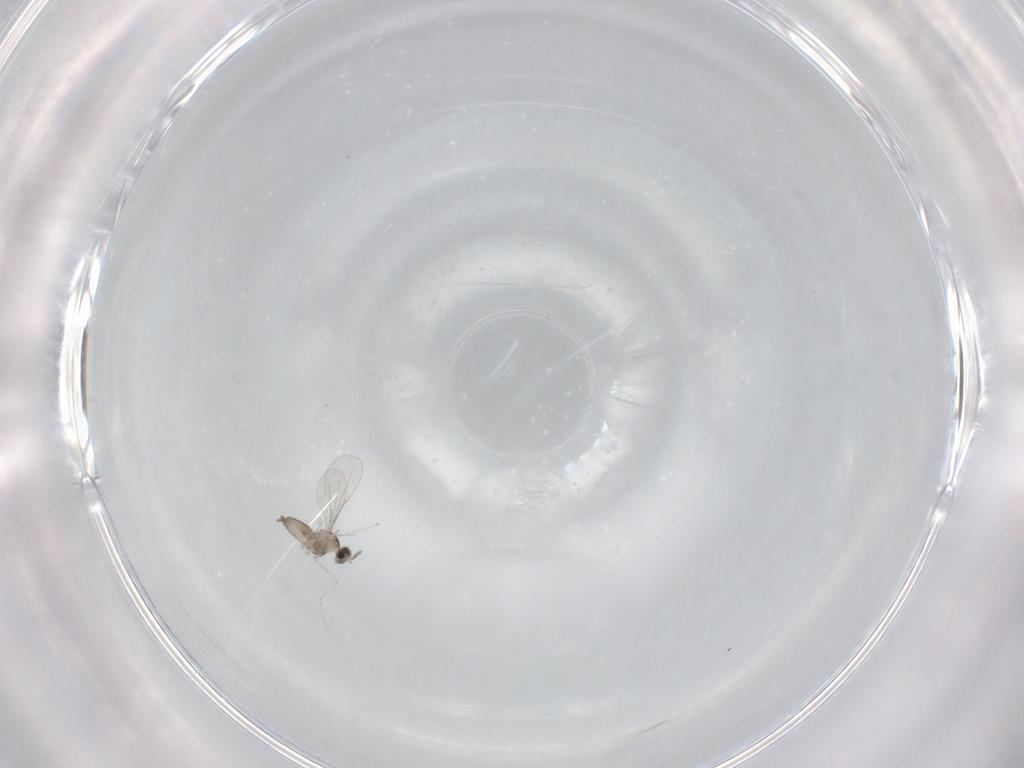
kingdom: Animalia
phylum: Arthropoda
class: Insecta
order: Diptera
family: Cecidomyiidae
